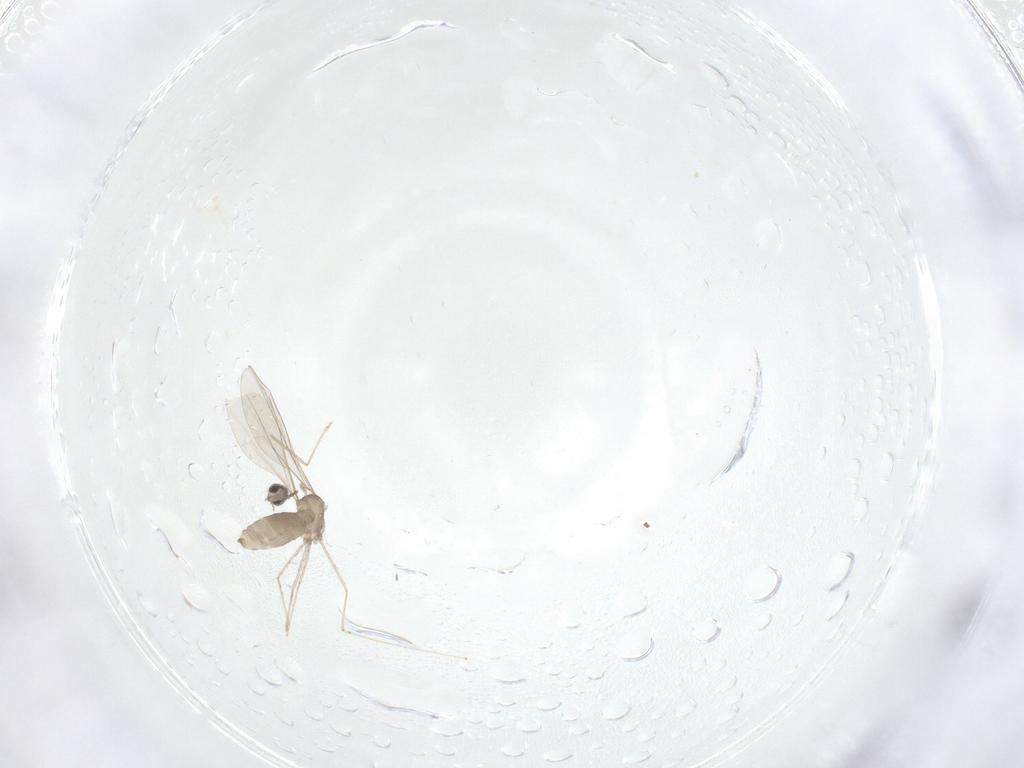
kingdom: Animalia
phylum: Arthropoda
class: Insecta
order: Diptera
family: Cecidomyiidae
